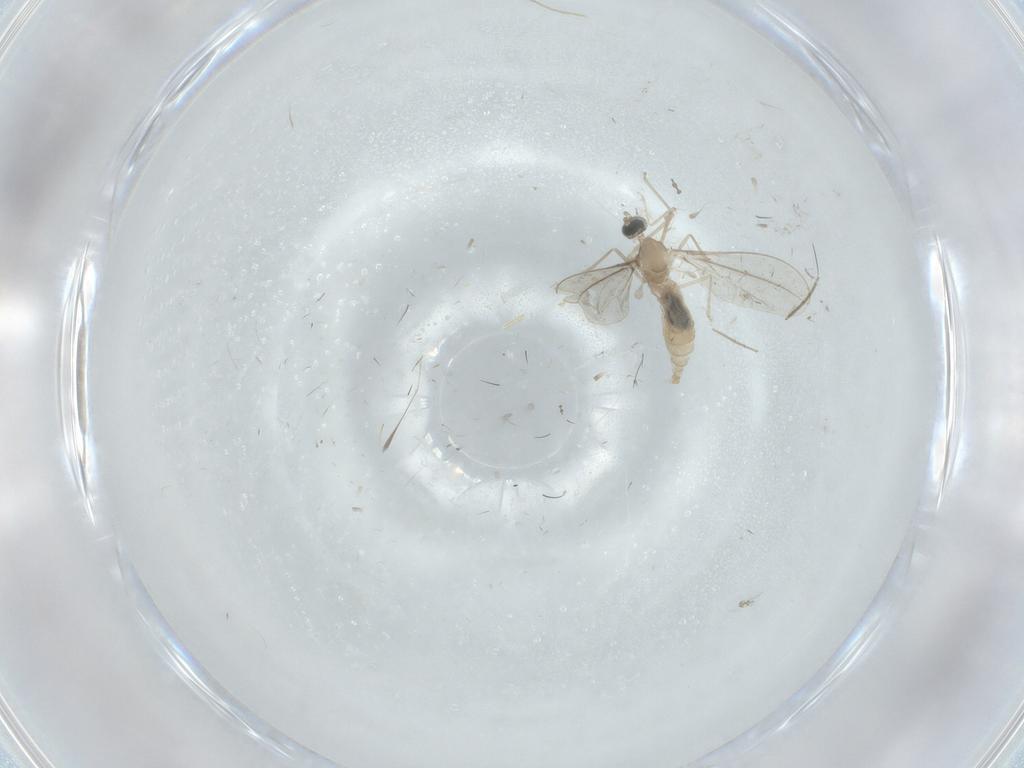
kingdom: Animalia
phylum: Arthropoda
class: Insecta
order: Diptera
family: Cecidomyiidae
